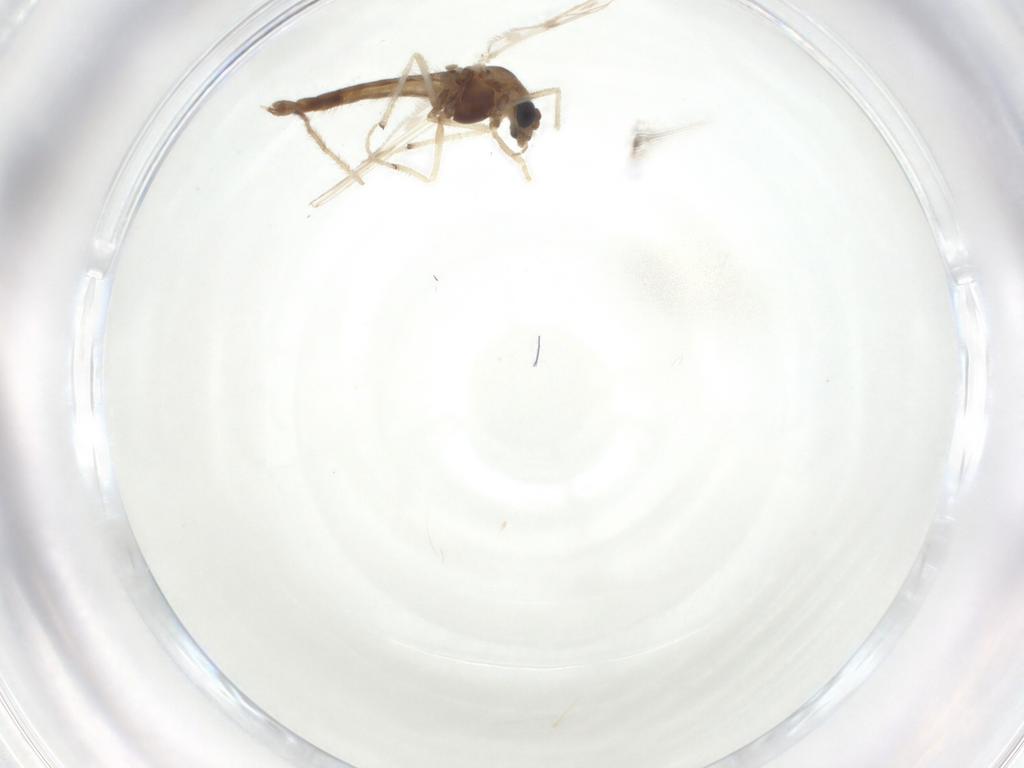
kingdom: Animalia
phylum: Arthropoda
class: Insecta
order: Diptera
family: Chironomidae
